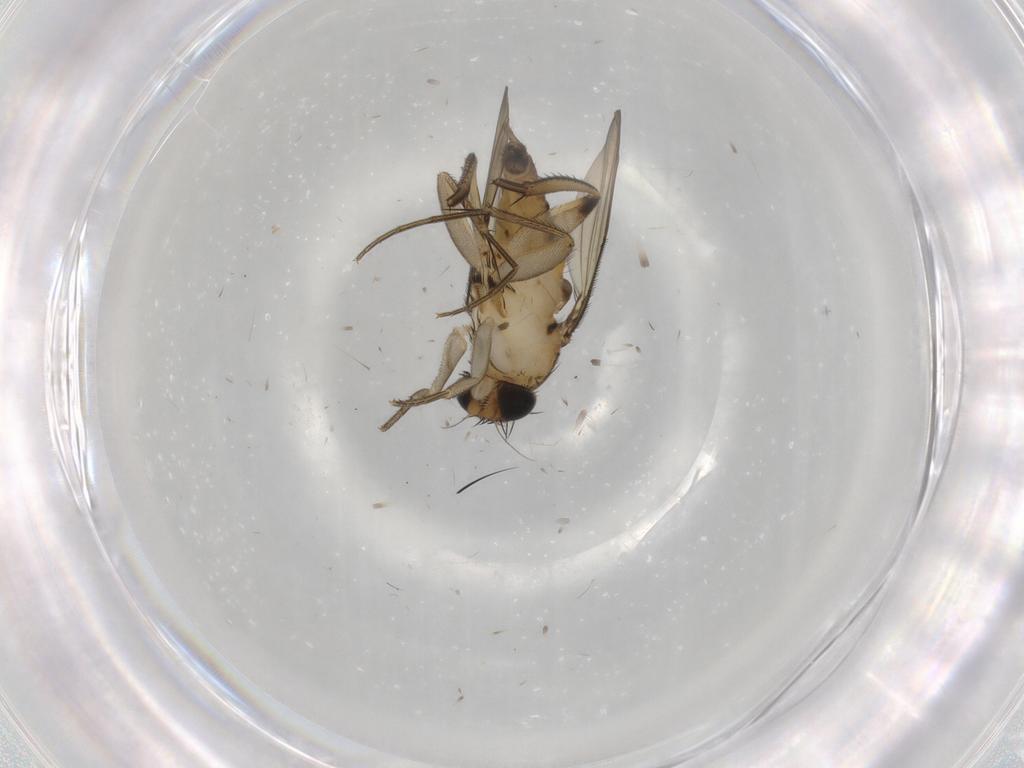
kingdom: Animalia
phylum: Arthropoda
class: Insecta
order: Diptera
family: Phoridae
